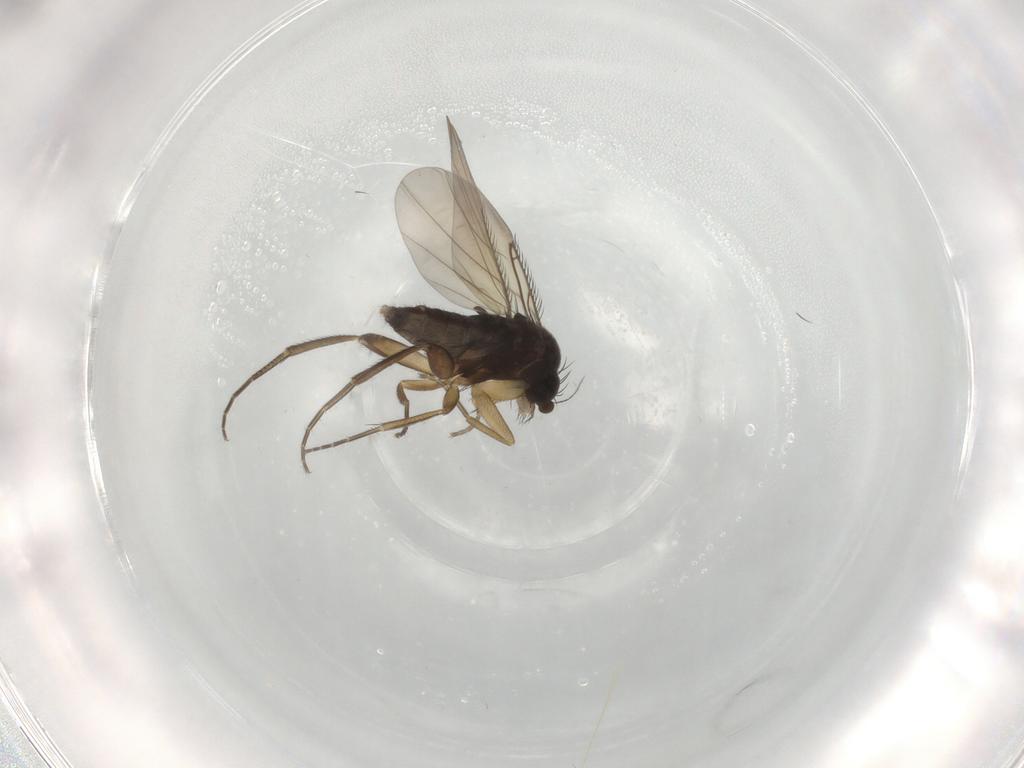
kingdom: Animalia
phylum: Arthropoda
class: Insecta
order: Diptera
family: Phoridae
